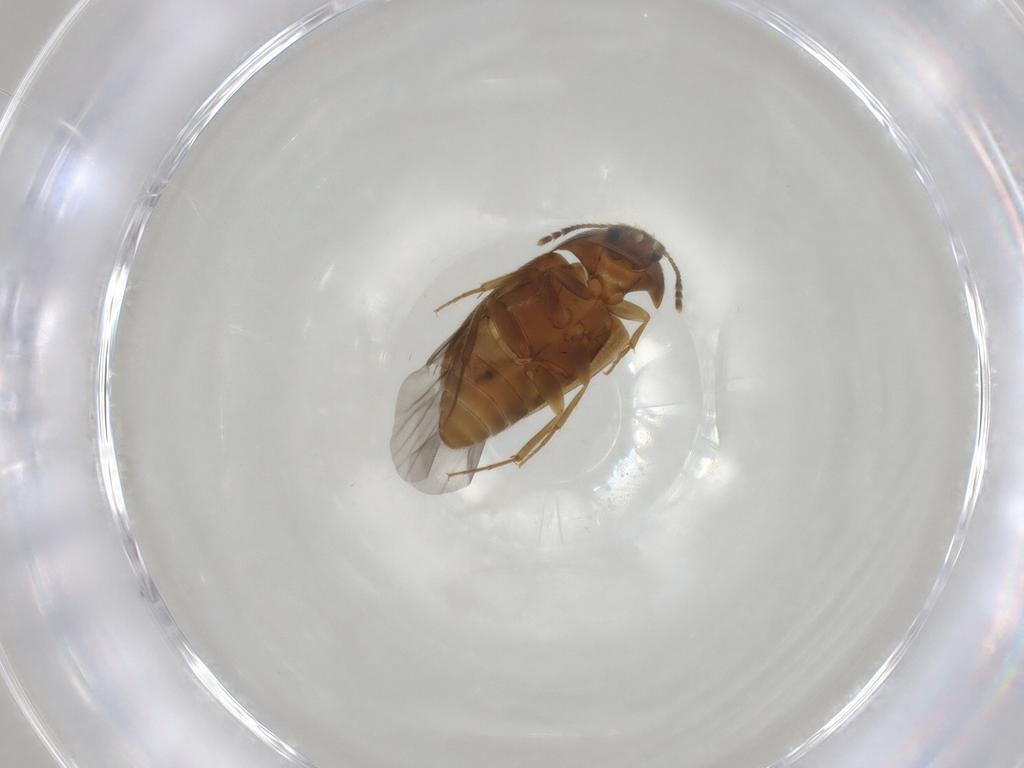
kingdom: Animalia
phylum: Arthropoda
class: Insecta
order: Coleoptera
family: Mycetophagidae
